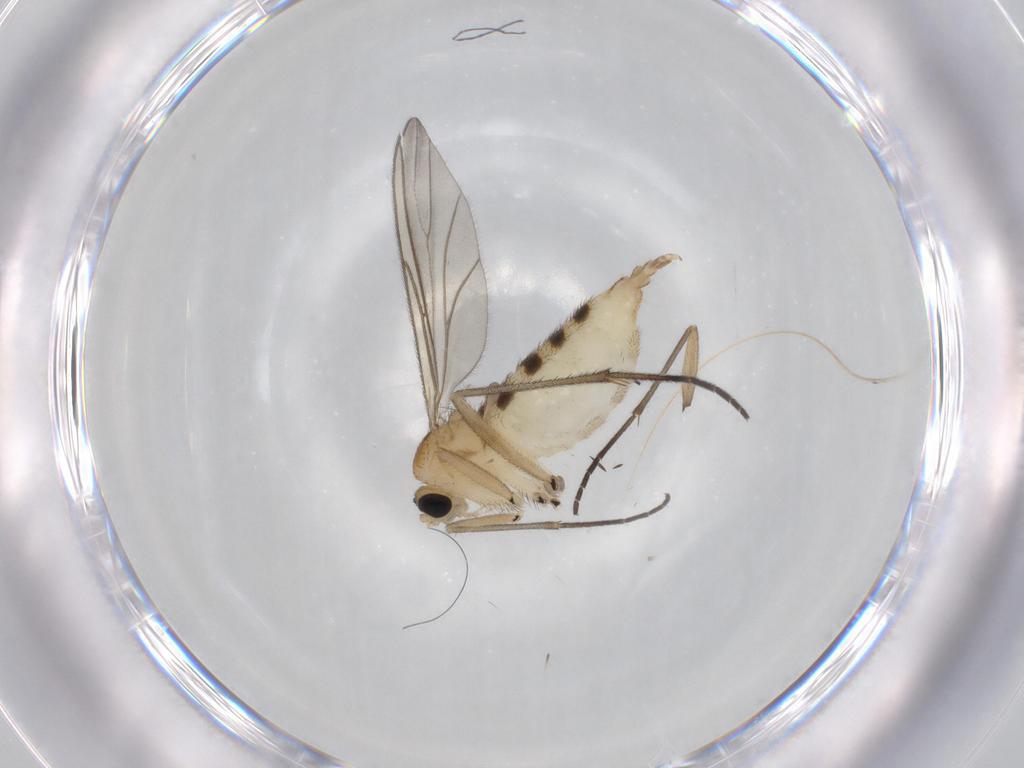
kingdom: Animalia
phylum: Arthropoda
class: Insecta
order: Diptera
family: Sciaridae
